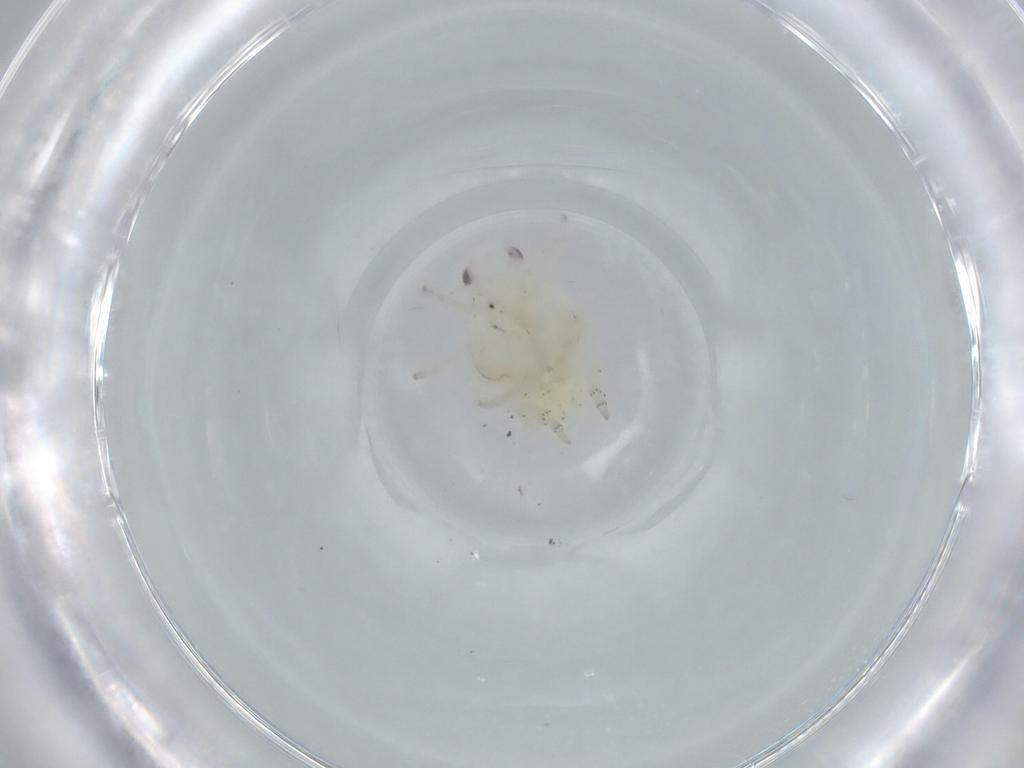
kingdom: Animalia
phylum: Arthropoda
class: Insecta
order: Hemiptera
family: Flatidae
